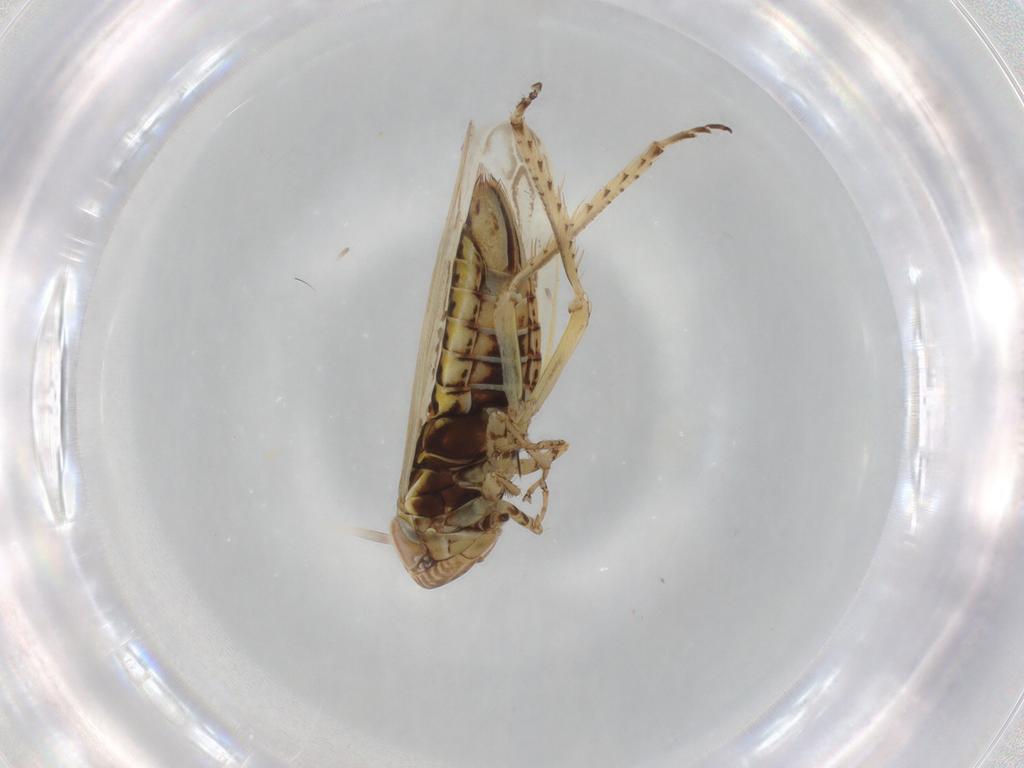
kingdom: Animalia
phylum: Arthropoda
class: Insecta
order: Hemiptera
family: Cicadellidae
